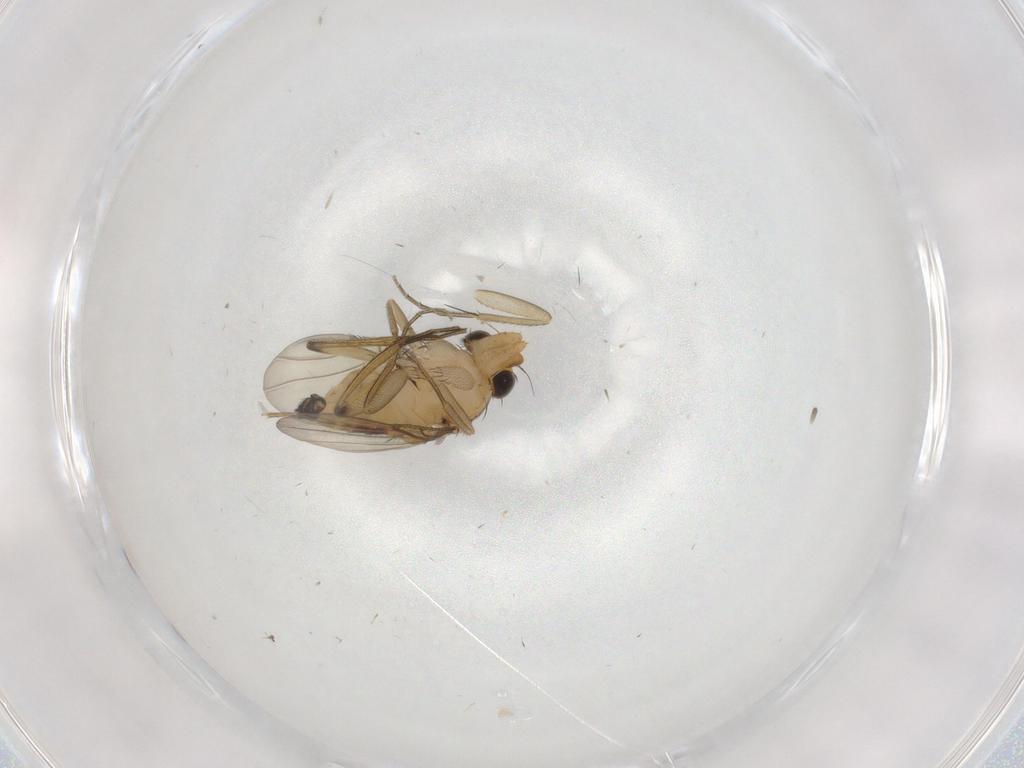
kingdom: Animalia
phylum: Arthropoda
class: Insecta
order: Diptera
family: Phoridae
